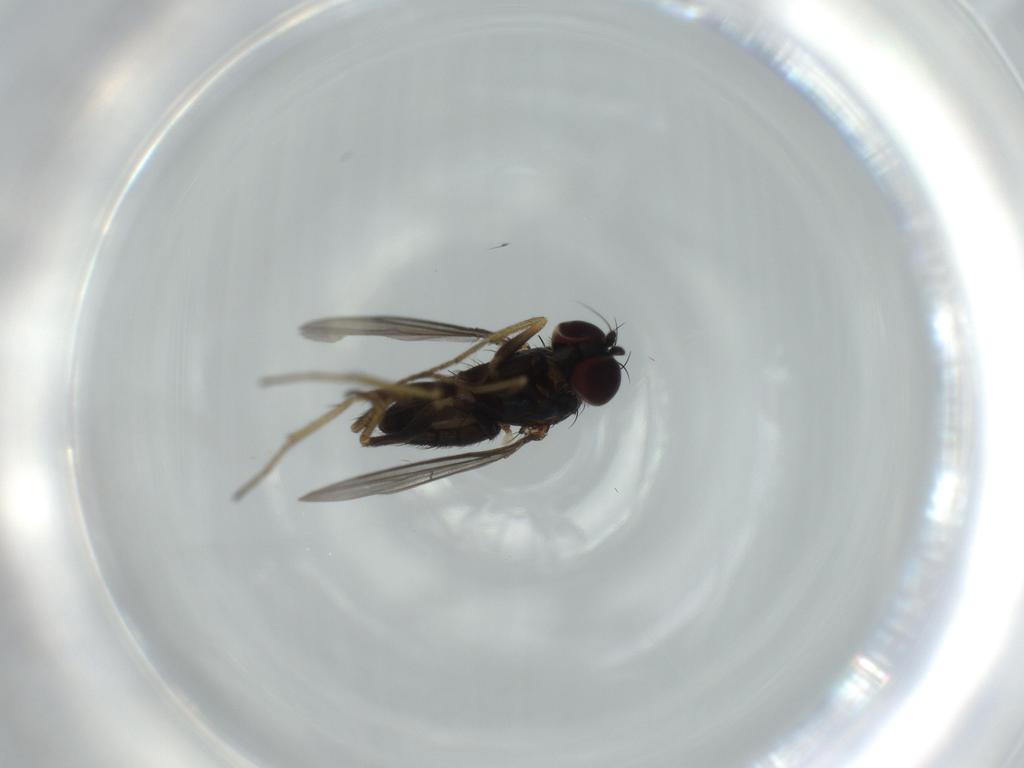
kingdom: Animalia
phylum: Arthropoda
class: Insecta
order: Diptera
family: Dolichopodidae
